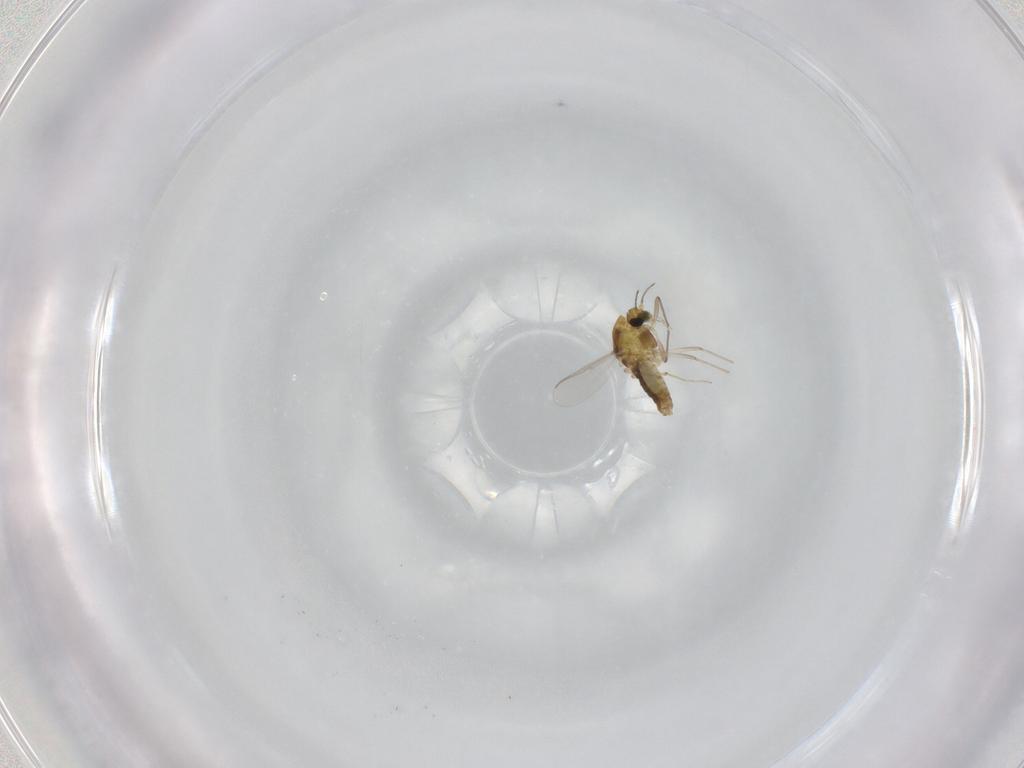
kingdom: Animalia
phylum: Arthropoda
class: Insecta
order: Diptera
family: Chironomidae
